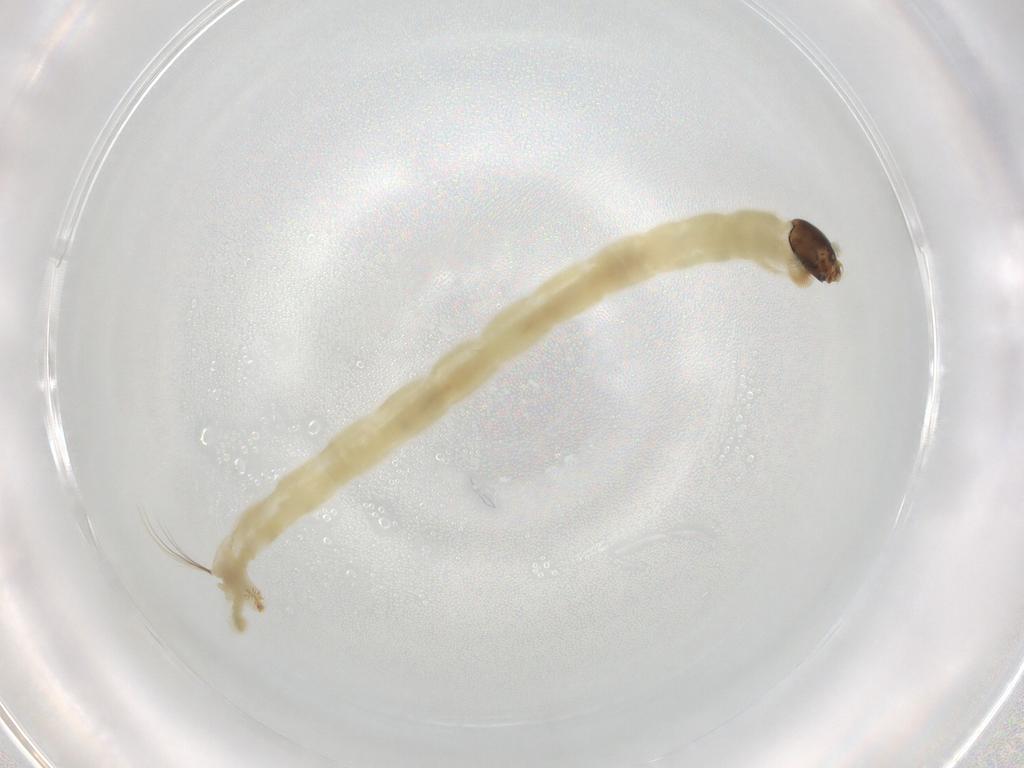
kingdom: Animalia
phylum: Arthropoda
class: Insecta
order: Diptera
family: Chironomidae
